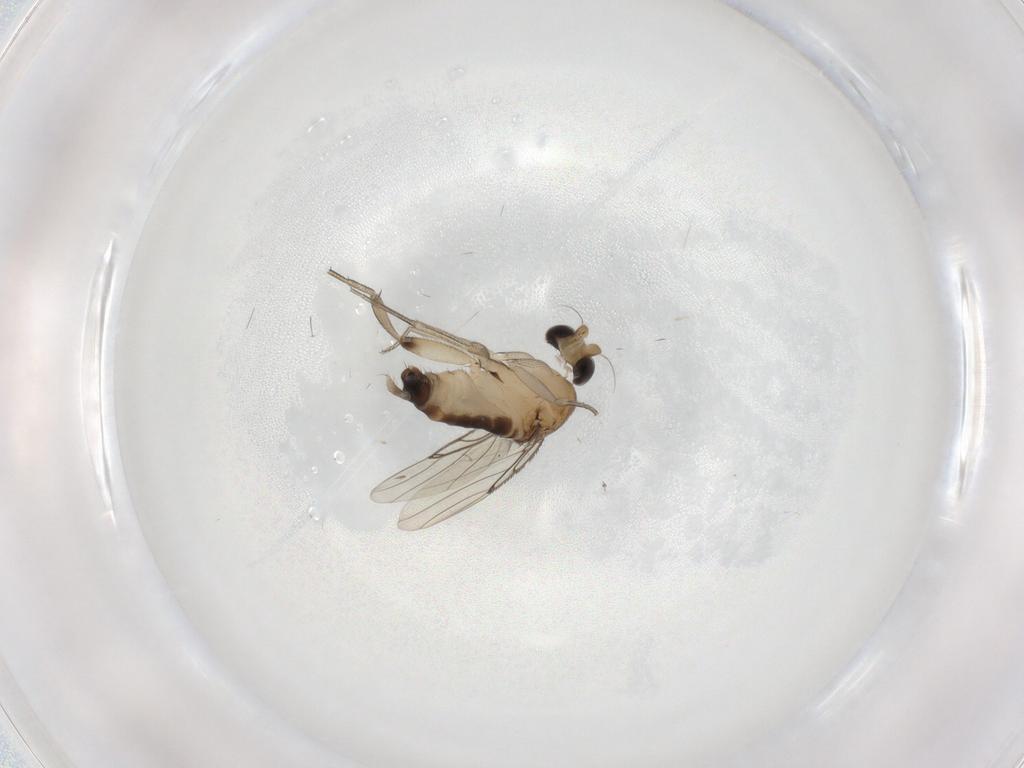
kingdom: Animalia
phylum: Arthropoda
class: Insecta
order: Diptera
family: Phoridae
